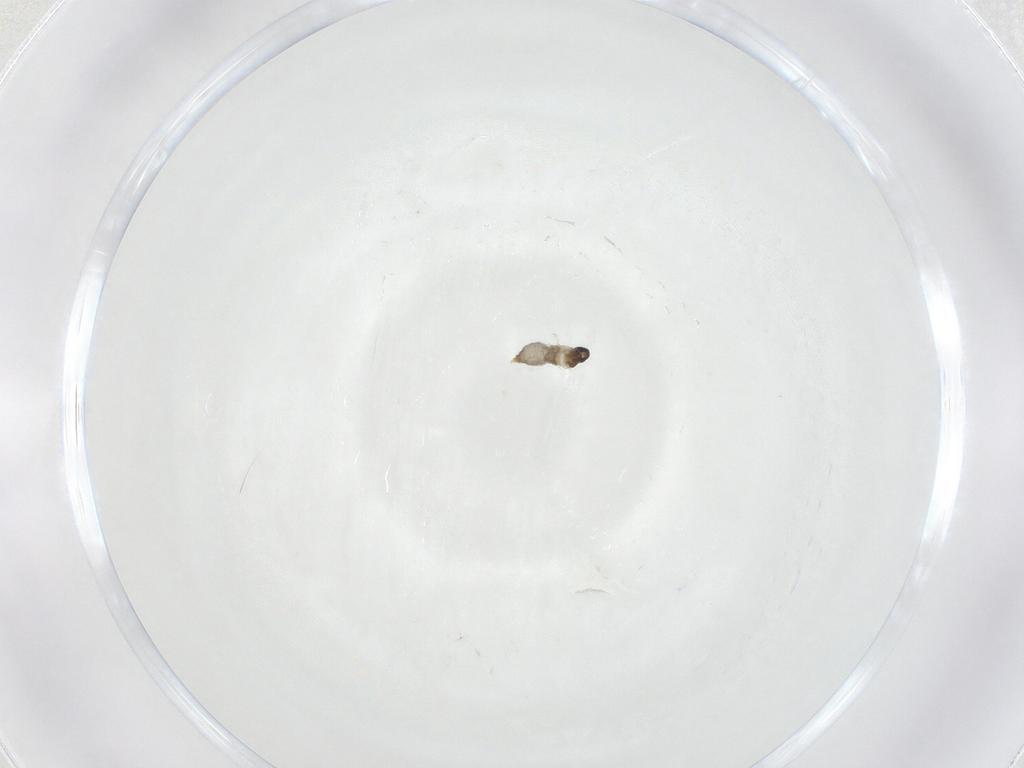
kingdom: Animalia
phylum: Arthropoda
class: Insecta
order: Diptera
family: Cecidomyiidae
